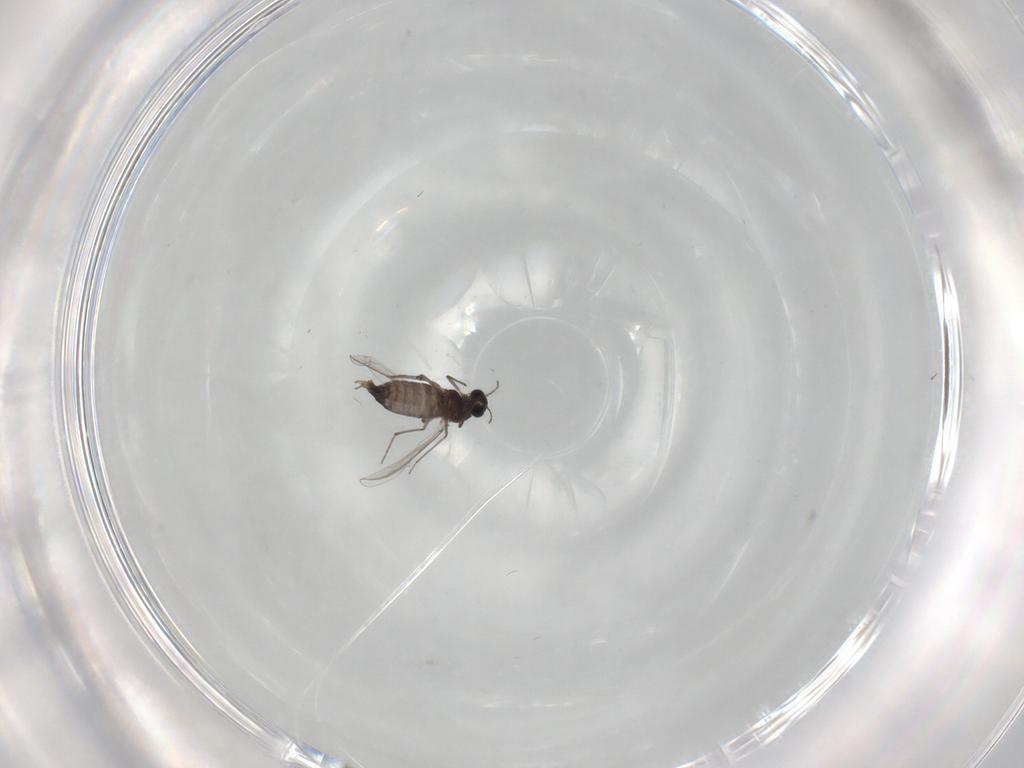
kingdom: Animalia
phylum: Arthropoda
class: Insecta
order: Diptera
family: Chironomidae
